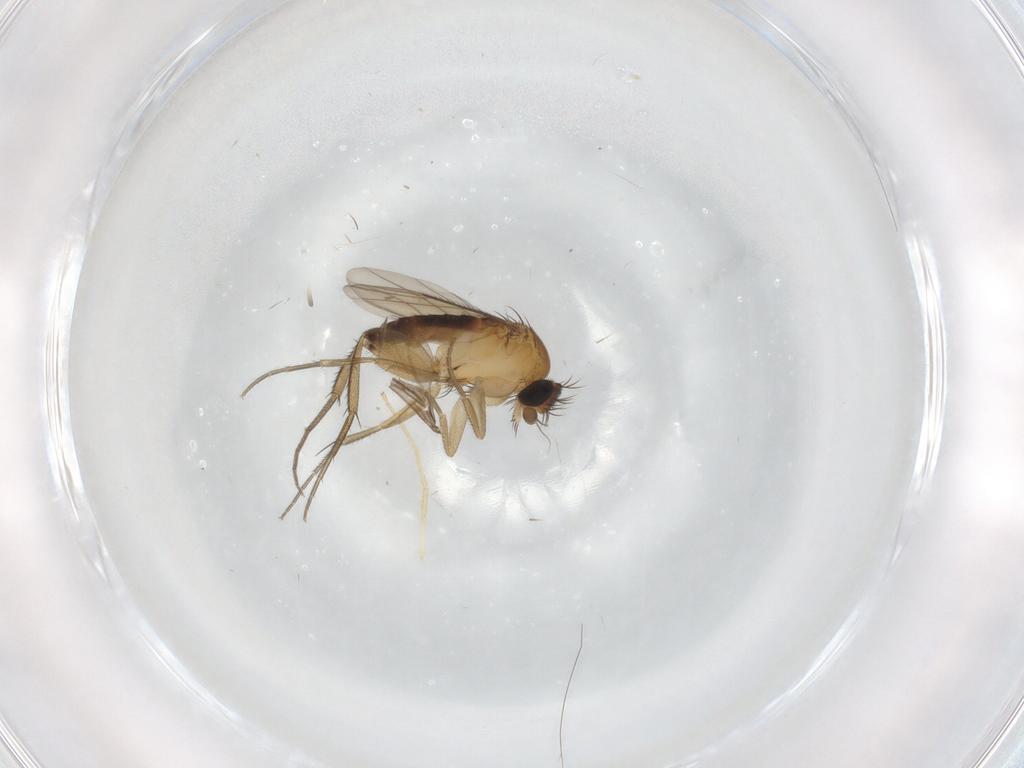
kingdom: Animalia
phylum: Arthropoda
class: Insecta
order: Diptera
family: Phoridae
